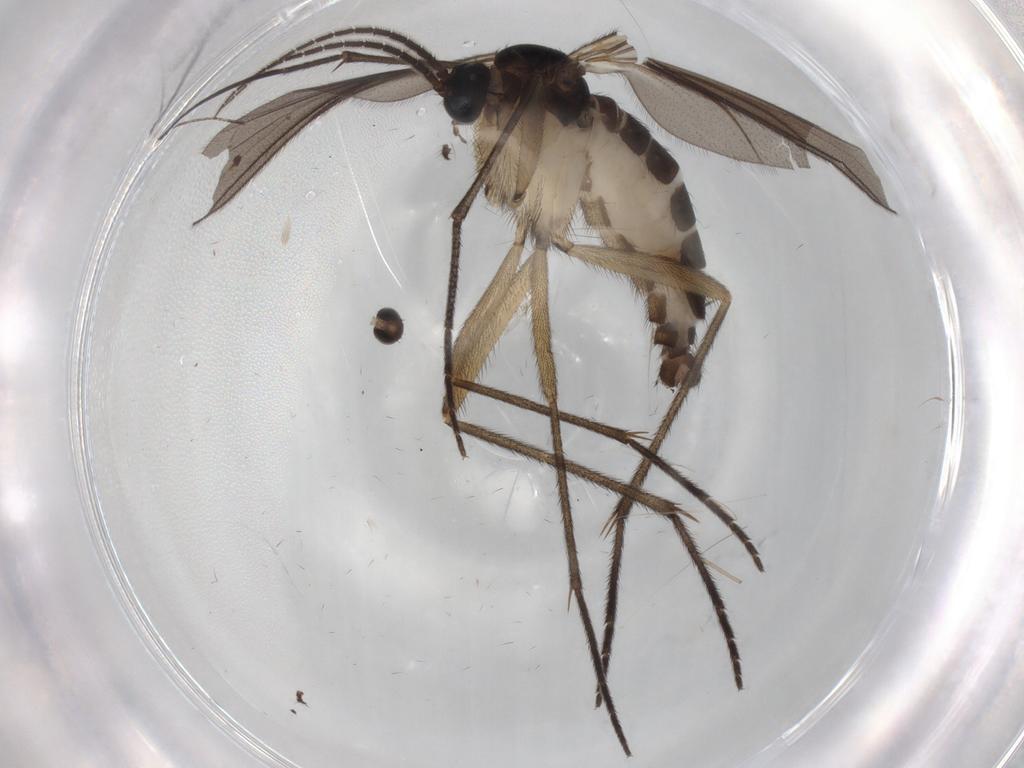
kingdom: Animalia
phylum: Arthropoda
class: Insecta
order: Diptera
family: Sciaridae
